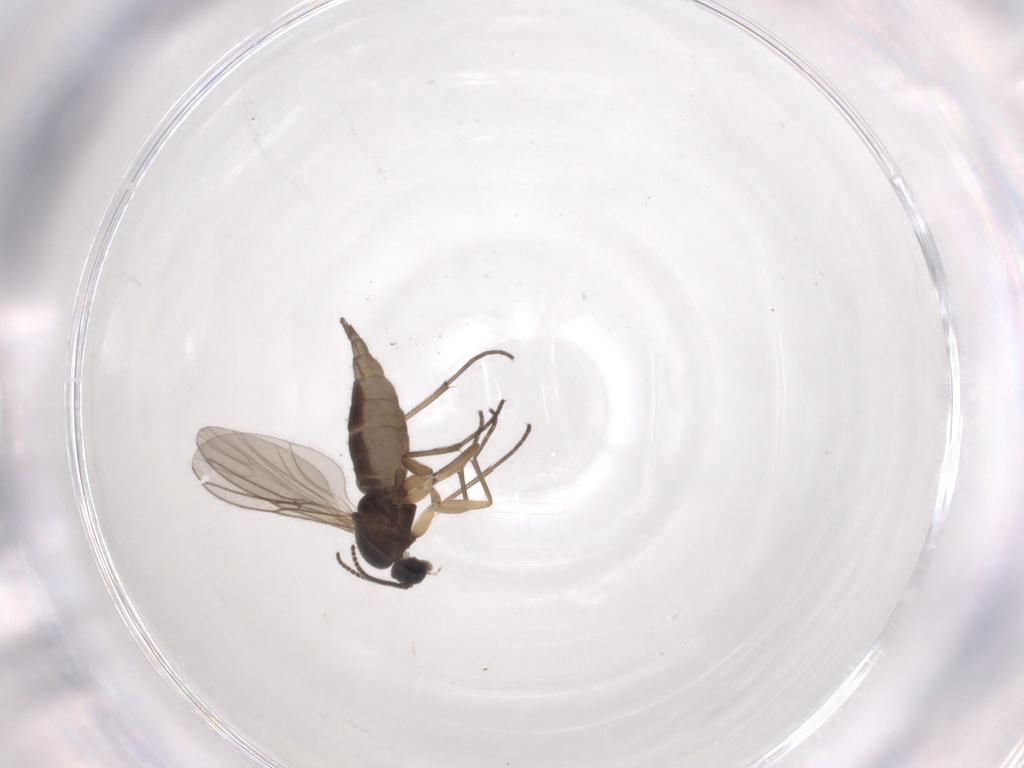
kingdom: Animalia
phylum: Arthropoda
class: Insecta
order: Diptera
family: Sciaridae
